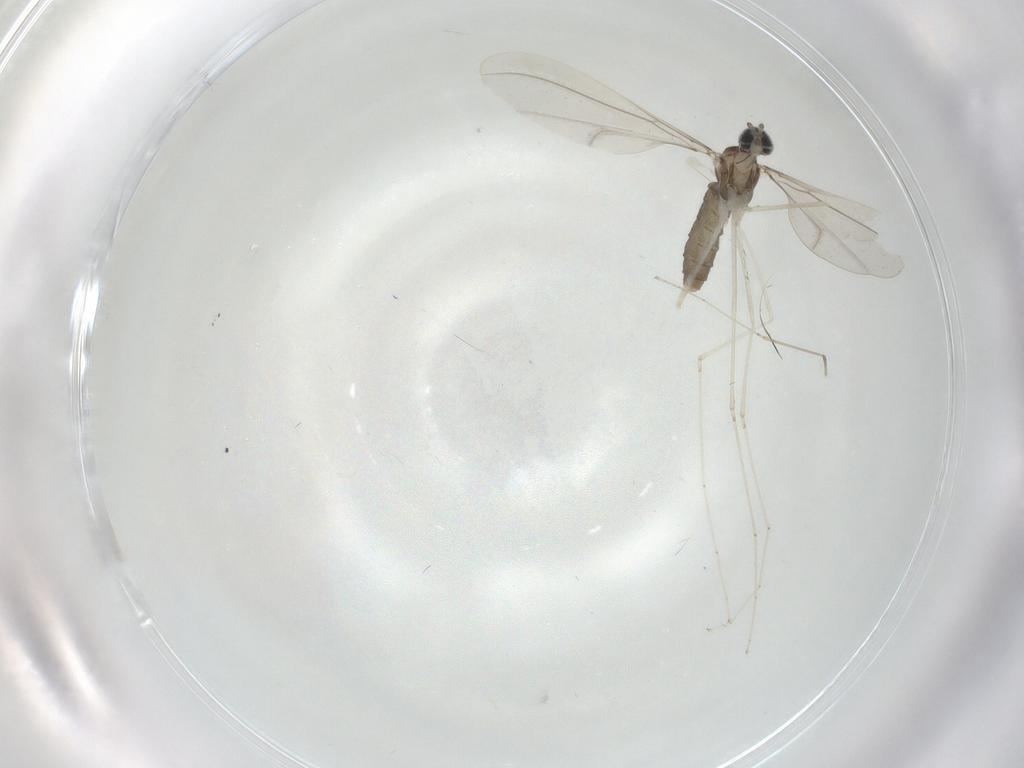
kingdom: Animalia
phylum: Arthropoda
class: Insecta
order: Diptera
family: Cecidomyiidae
